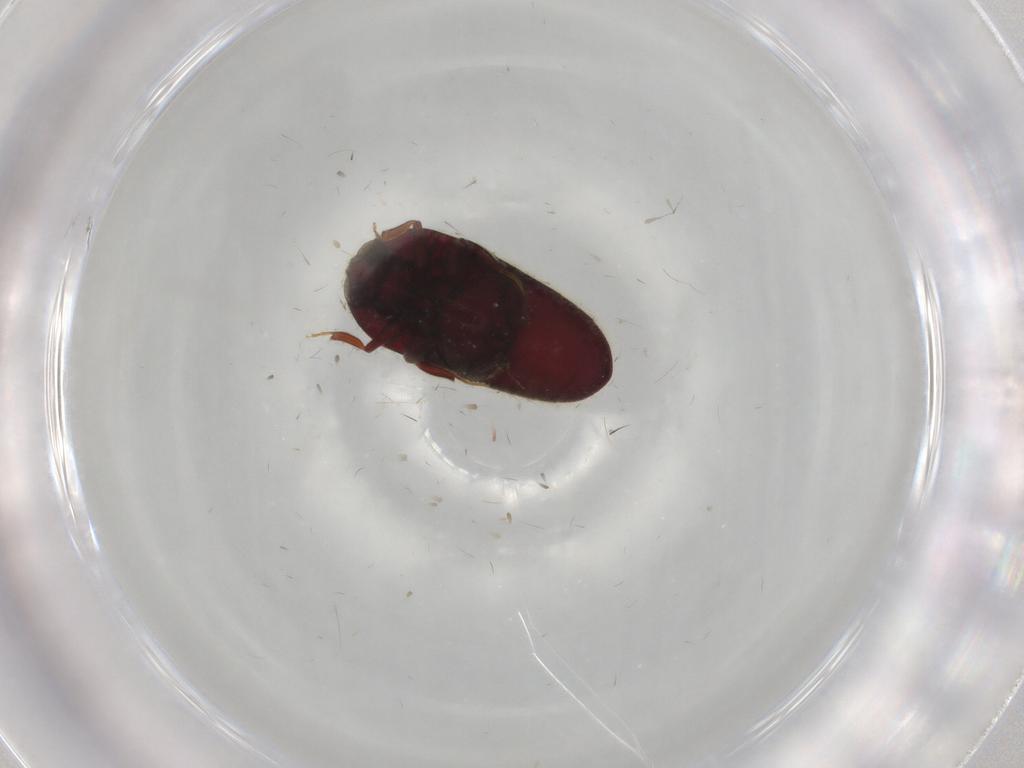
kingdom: Animalia
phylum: Arthropoda
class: Insecta
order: Coleoptera
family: Throscidae
